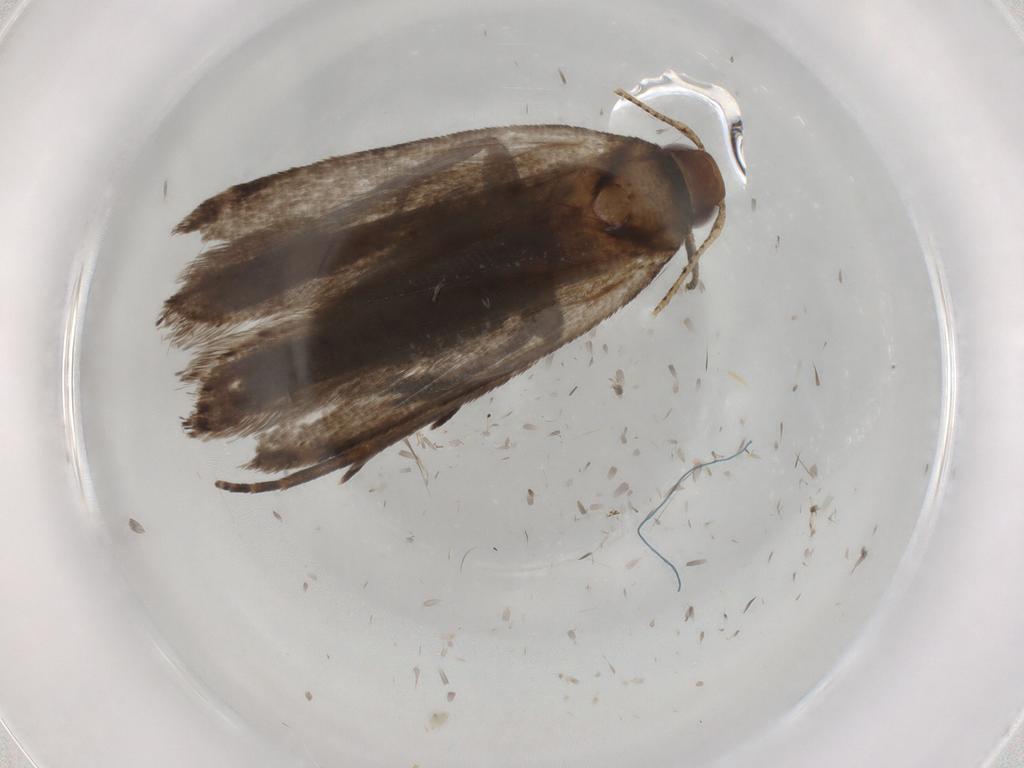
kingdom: Animalia
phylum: Arthropoda
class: Insecta
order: Lepidoptera
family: Gelechiidae
